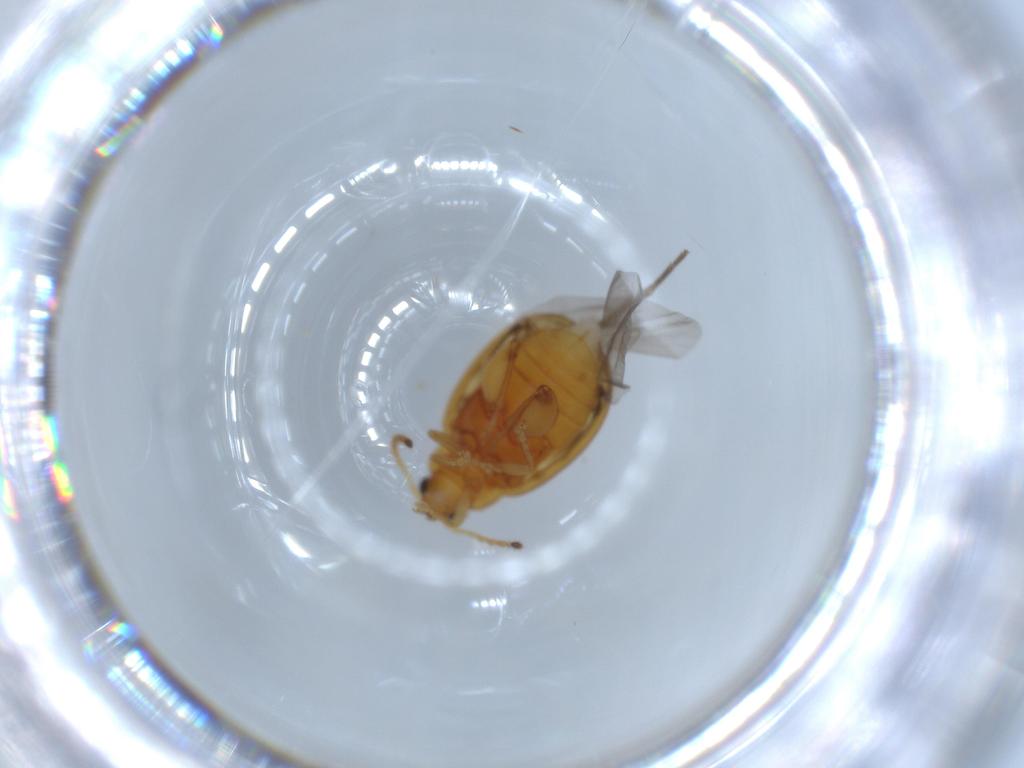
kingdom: Animalia
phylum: Arthropoda
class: Insecta
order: Coleoptera
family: Chrysomelidae
